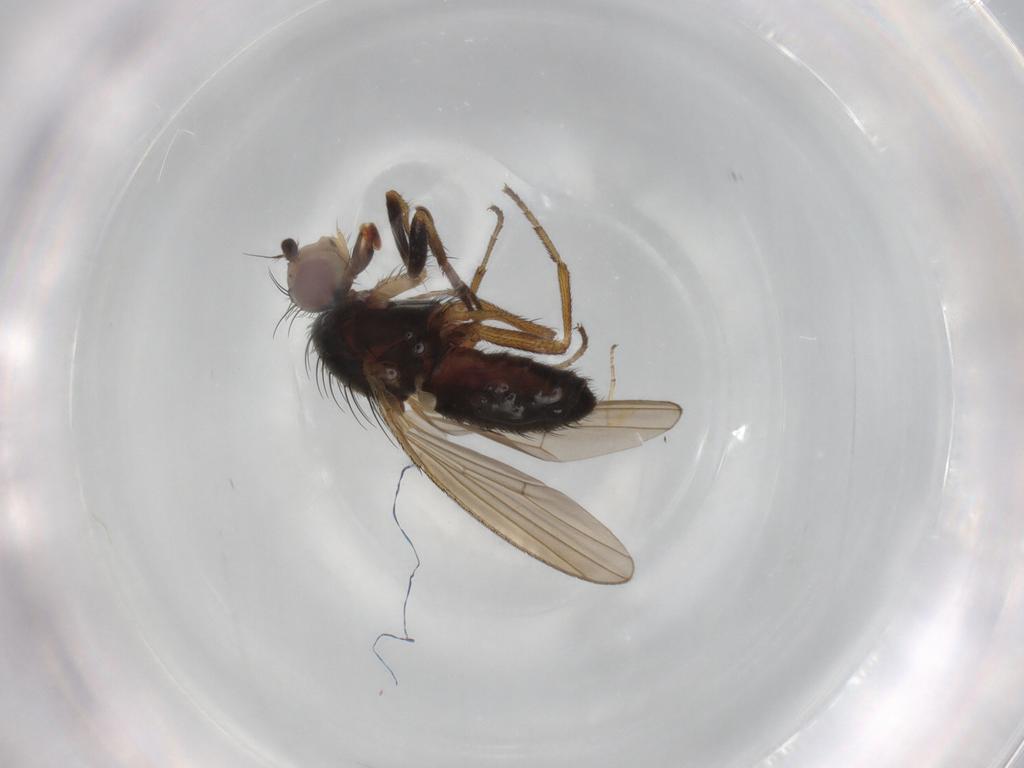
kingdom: Animalia
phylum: Arthropoda
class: Insecta
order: Diptera
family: Heleomyzidae
